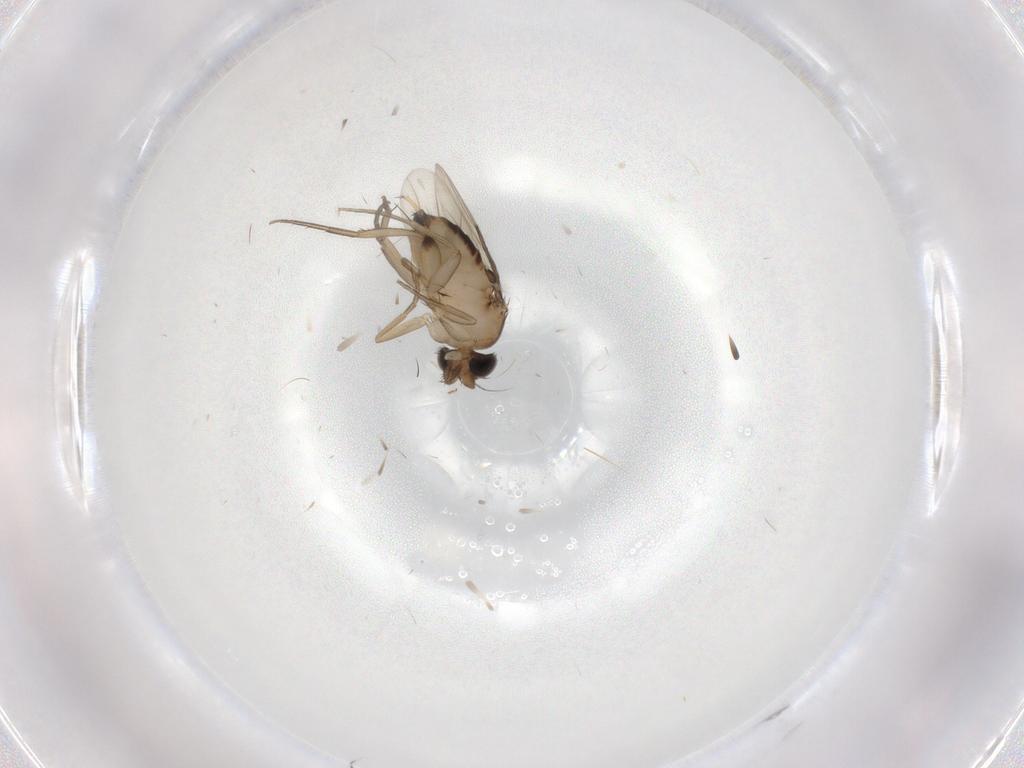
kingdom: Animalia
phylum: Arthropoda
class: Insecta
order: Diptera
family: Phoridae
